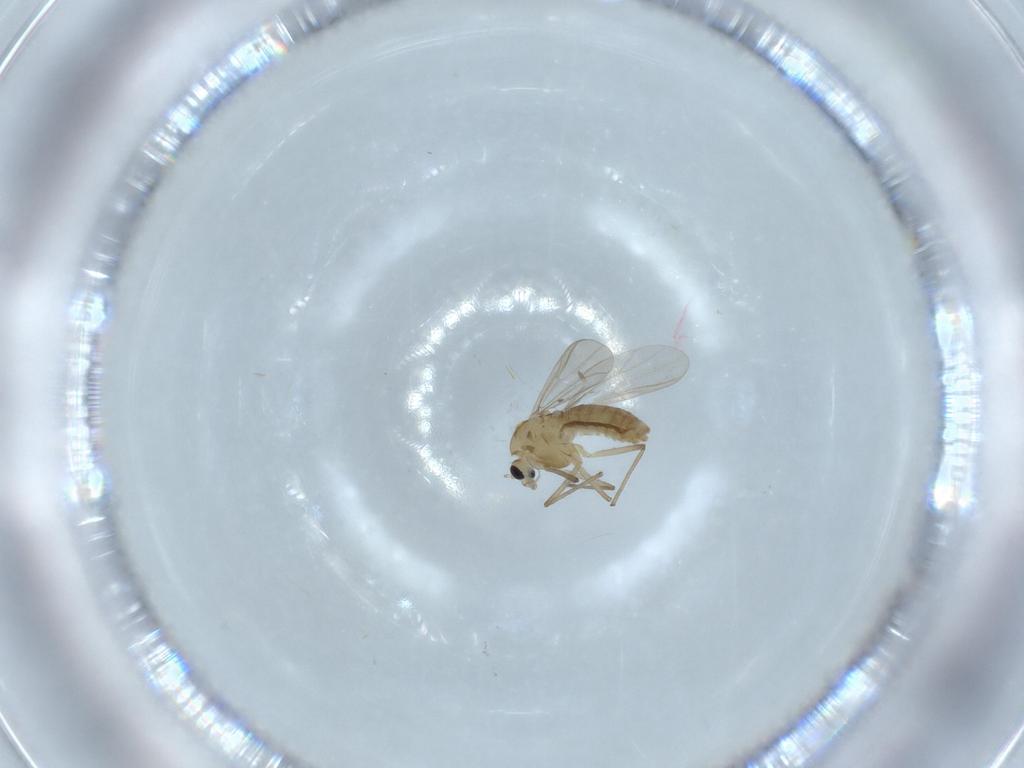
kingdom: Animalia
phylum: Arthropoda
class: Insecta
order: Diptera
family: Chironomidae
